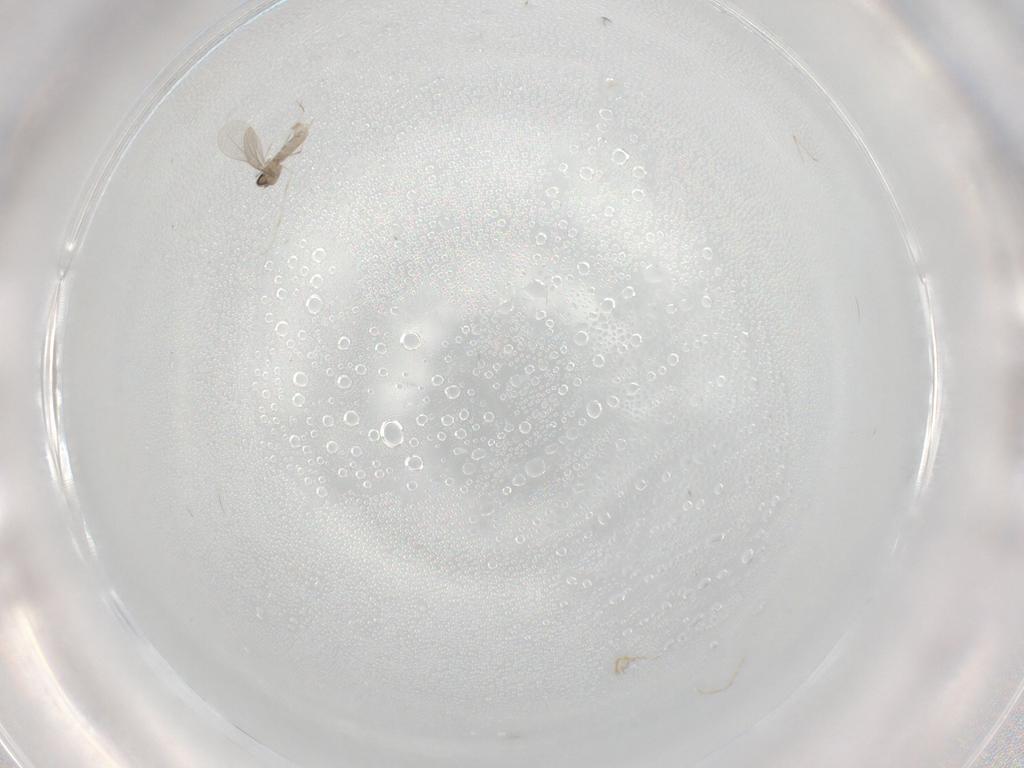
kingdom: Animalia
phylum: Arthropoda
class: Insecta
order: Diptera
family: Cecidomyiidae
